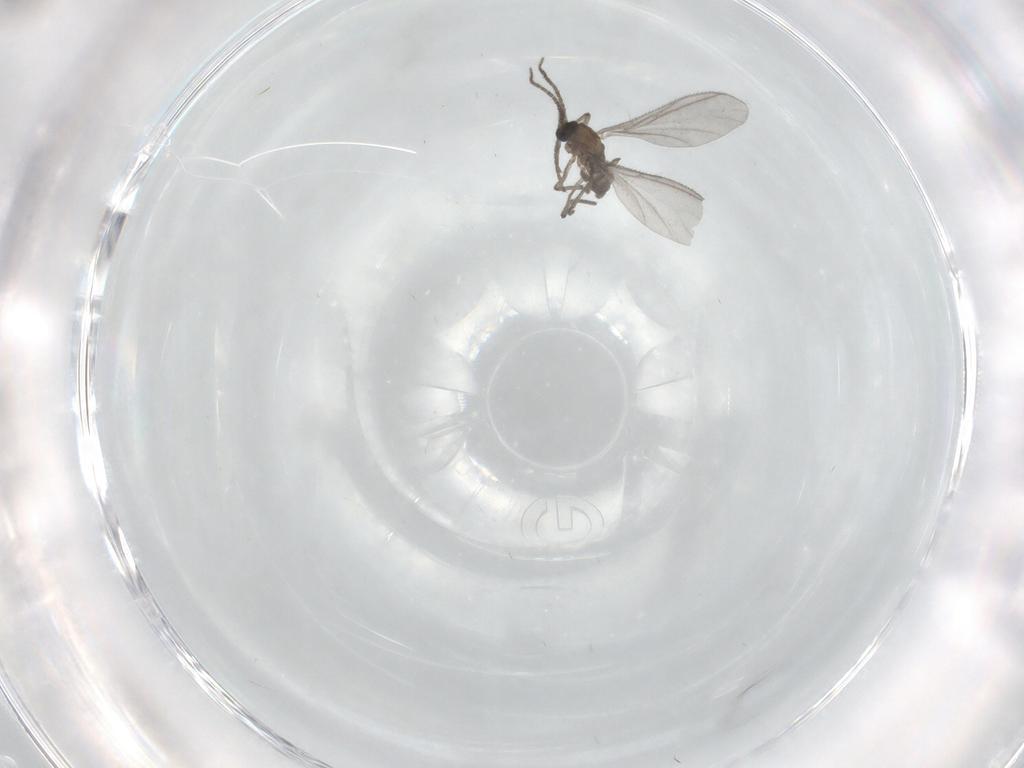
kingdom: Animalia
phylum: Arthropoda
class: Insecta
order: Diptera
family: Sciaridae
